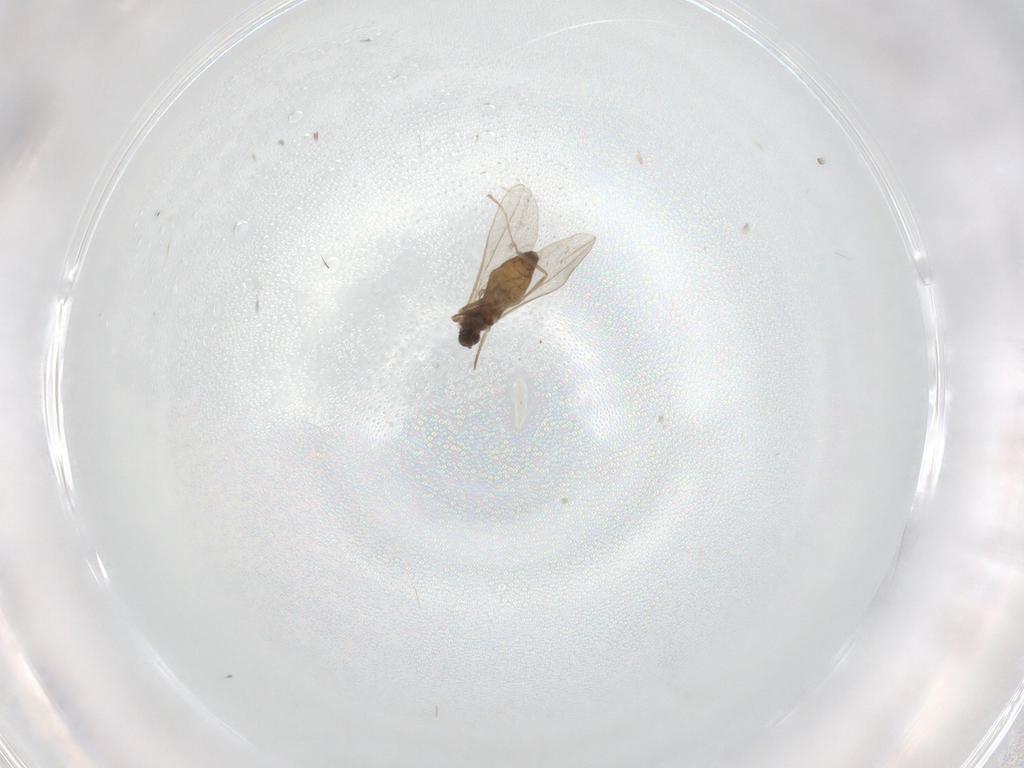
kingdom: Animalia
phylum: Arthropoda
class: Insecta
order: Diptera
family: Cecidomyiidae
